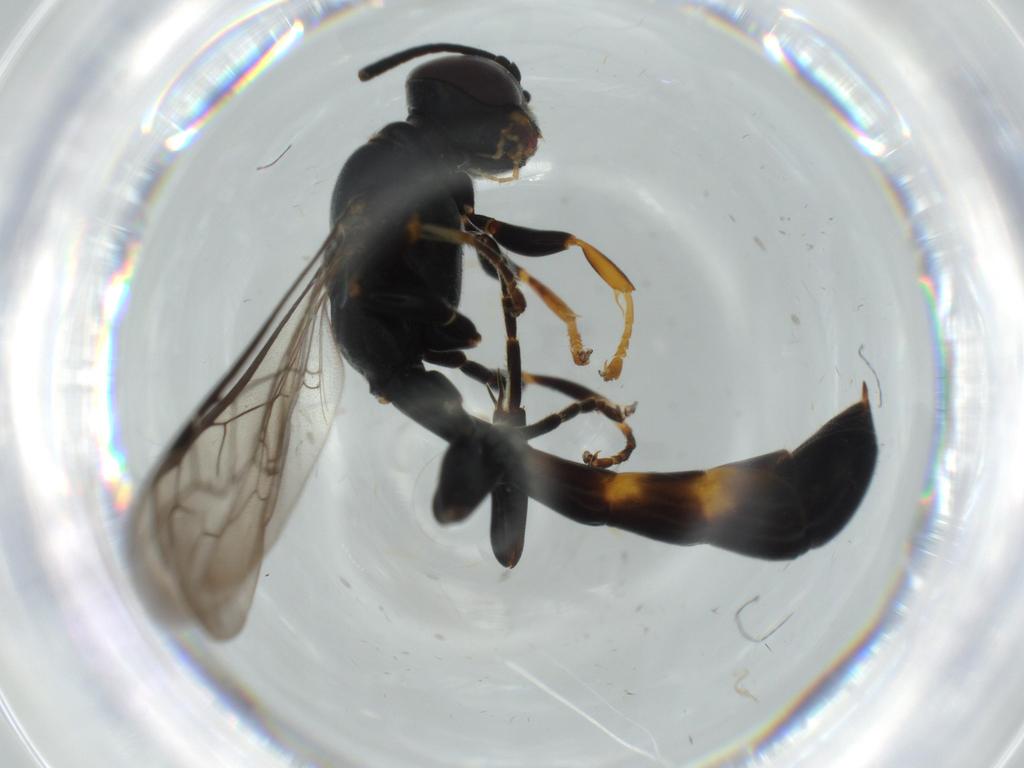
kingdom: Animalia
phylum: Arthropoda
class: Insecta
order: Hymenoptera
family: Crabronidae
